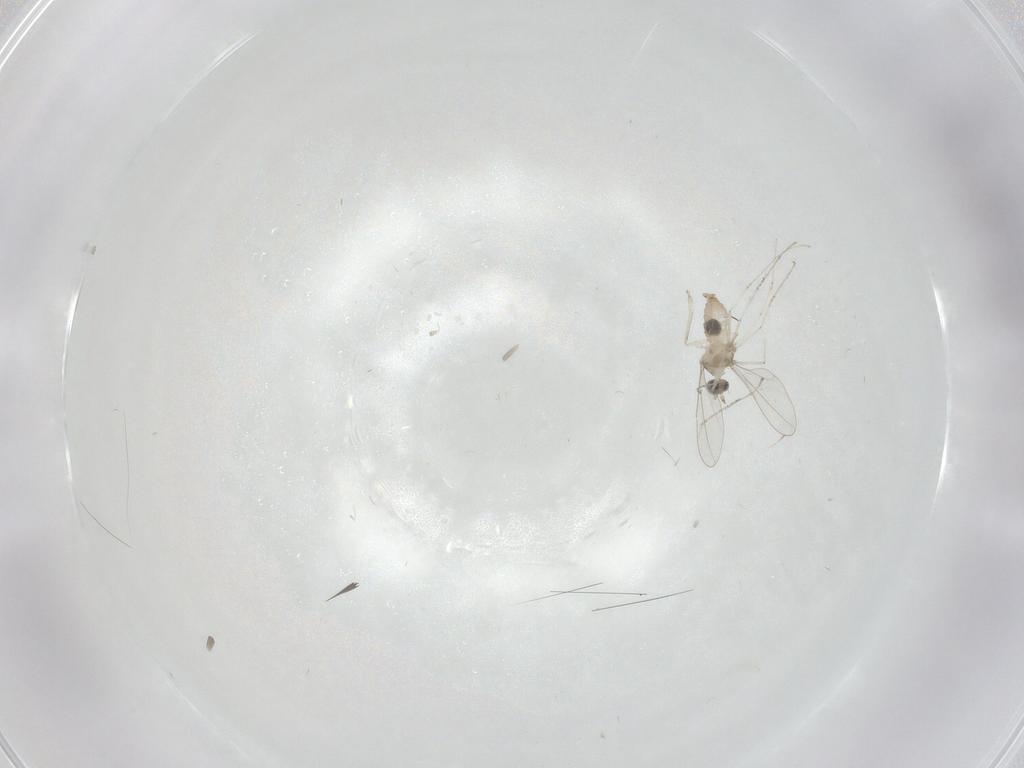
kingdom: Animalia
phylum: Arthropoda
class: Insecta
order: Diptera
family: Cecidomyiidae
